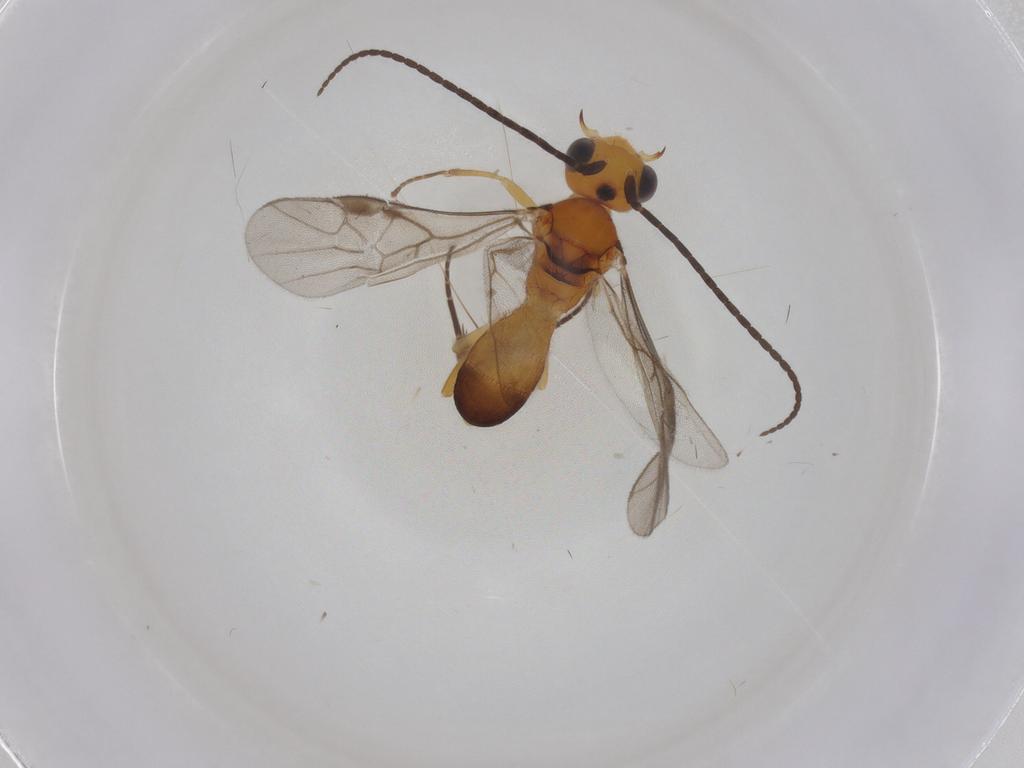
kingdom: Animalia
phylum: Arthropoda
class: Insecta
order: Hymenoptera
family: Braconidae
